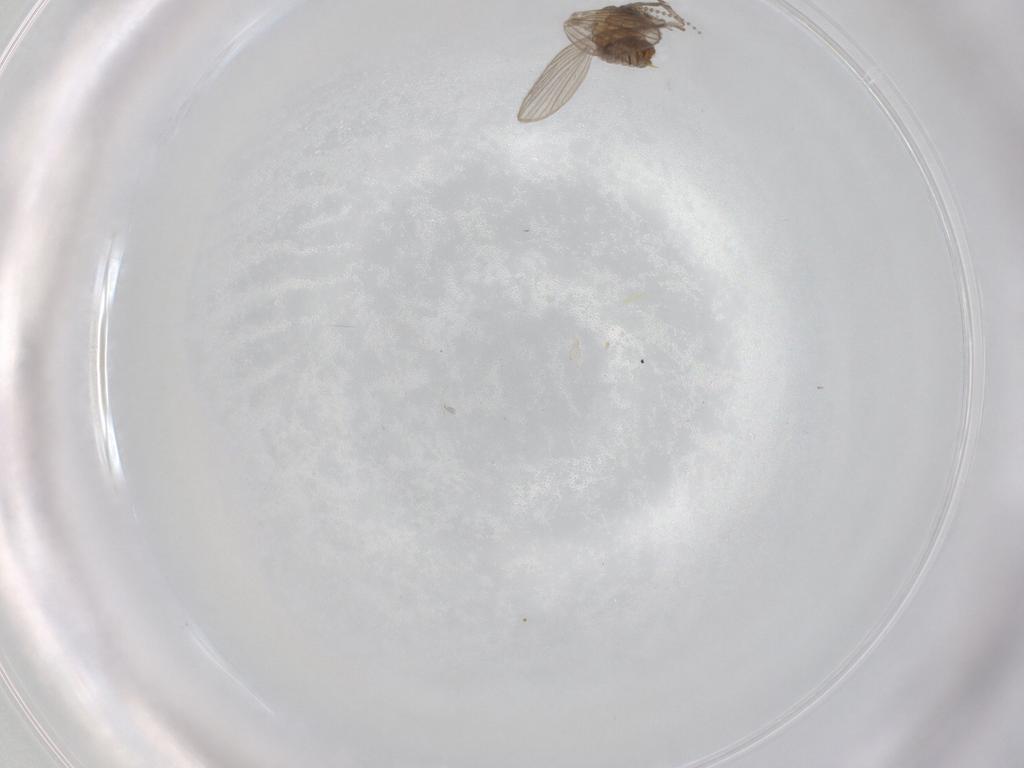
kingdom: Animalia
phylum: Arthropoda
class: Insecta
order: Diptera
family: Psychodidae
